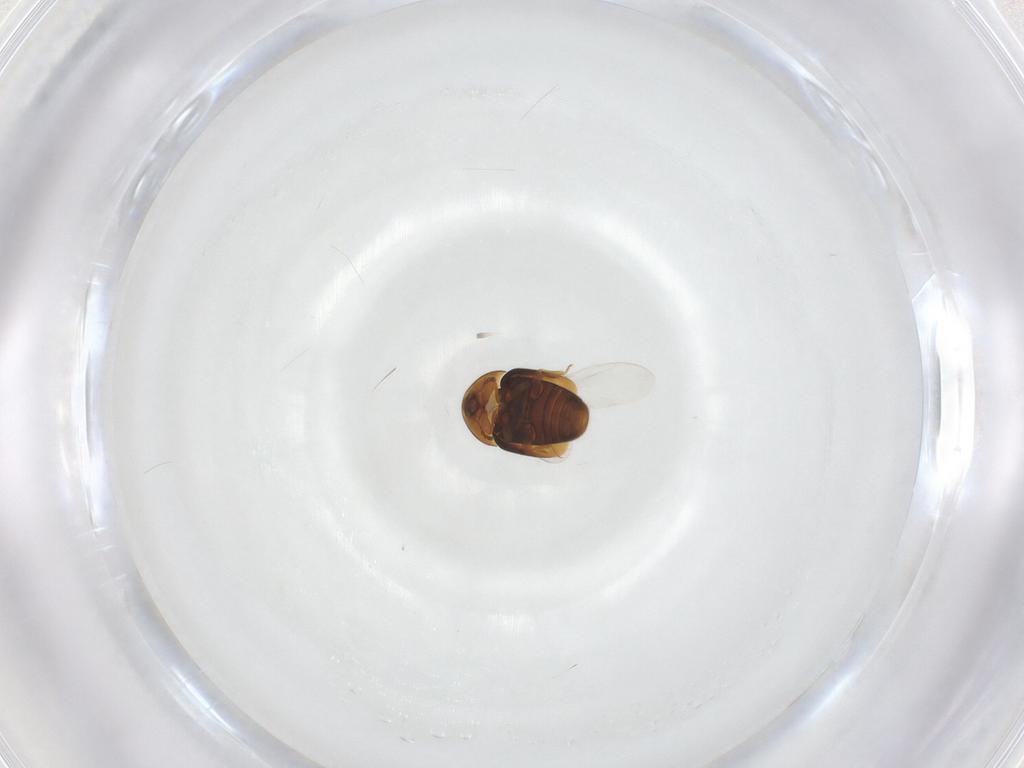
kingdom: Animalia
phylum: Arthropoda
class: Insecta
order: Coleoptera
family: Corylophidae
